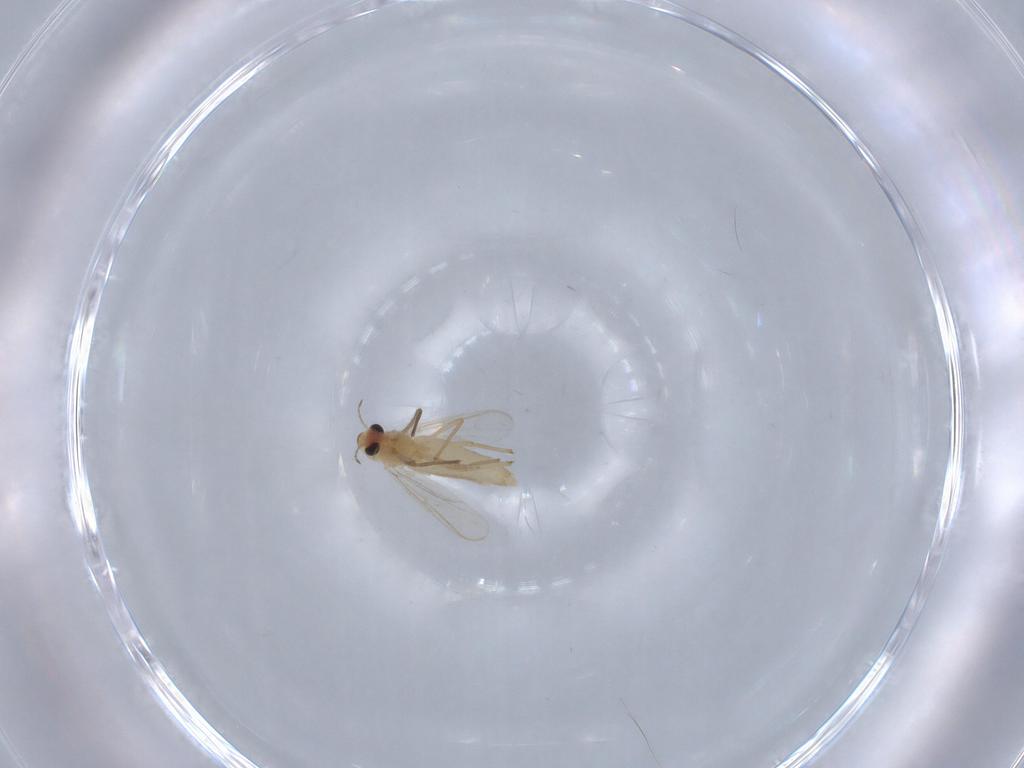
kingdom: Animalia
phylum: Arthropoda
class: Insecta
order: Diptera
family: Chironomidae
